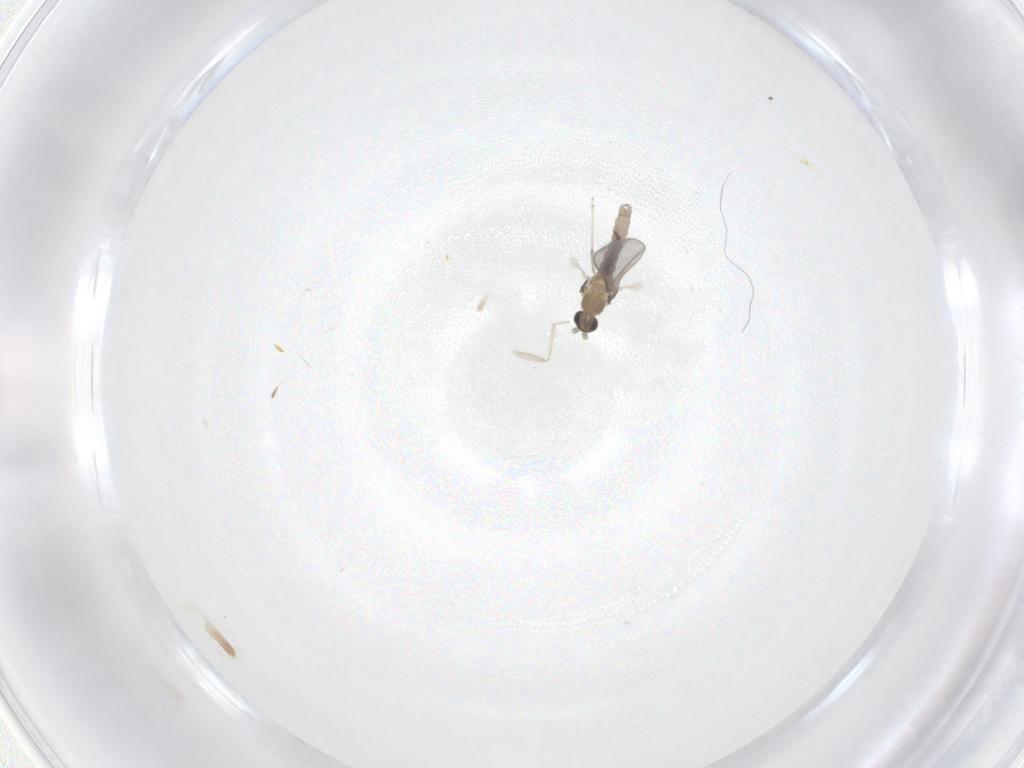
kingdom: Animalia
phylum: Arthropoda
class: Insecta
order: Diptera
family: Cecidomyiidae
